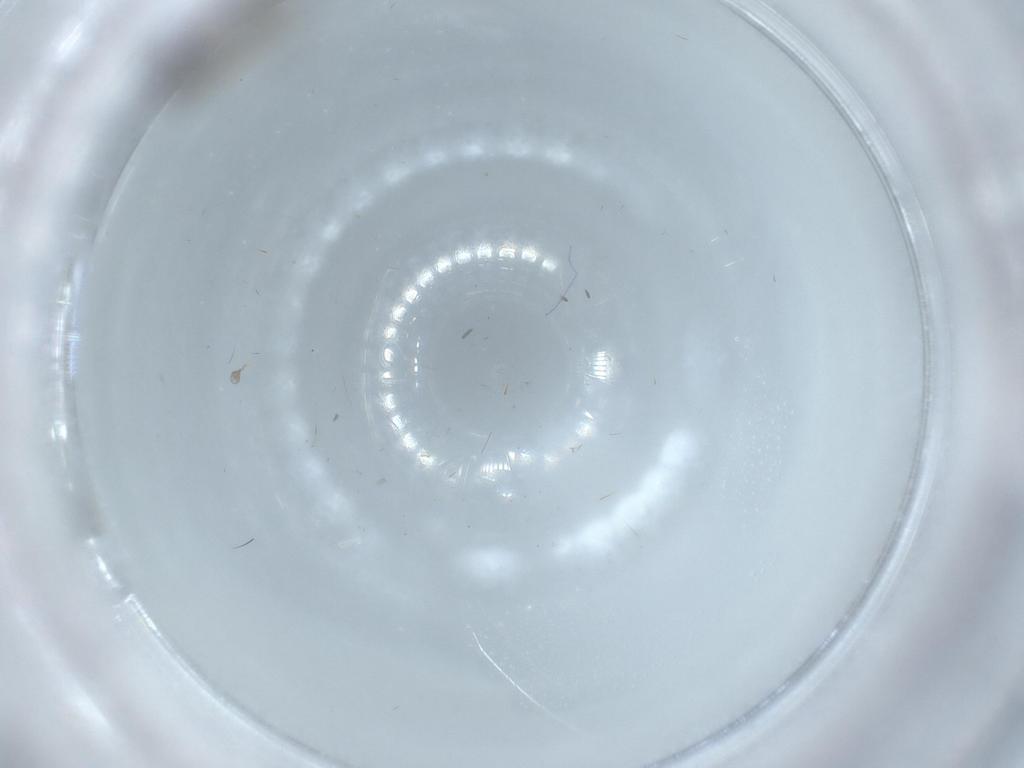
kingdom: Animalia
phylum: Arthropoda
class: Insecta
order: Diptera
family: Sciaridae
